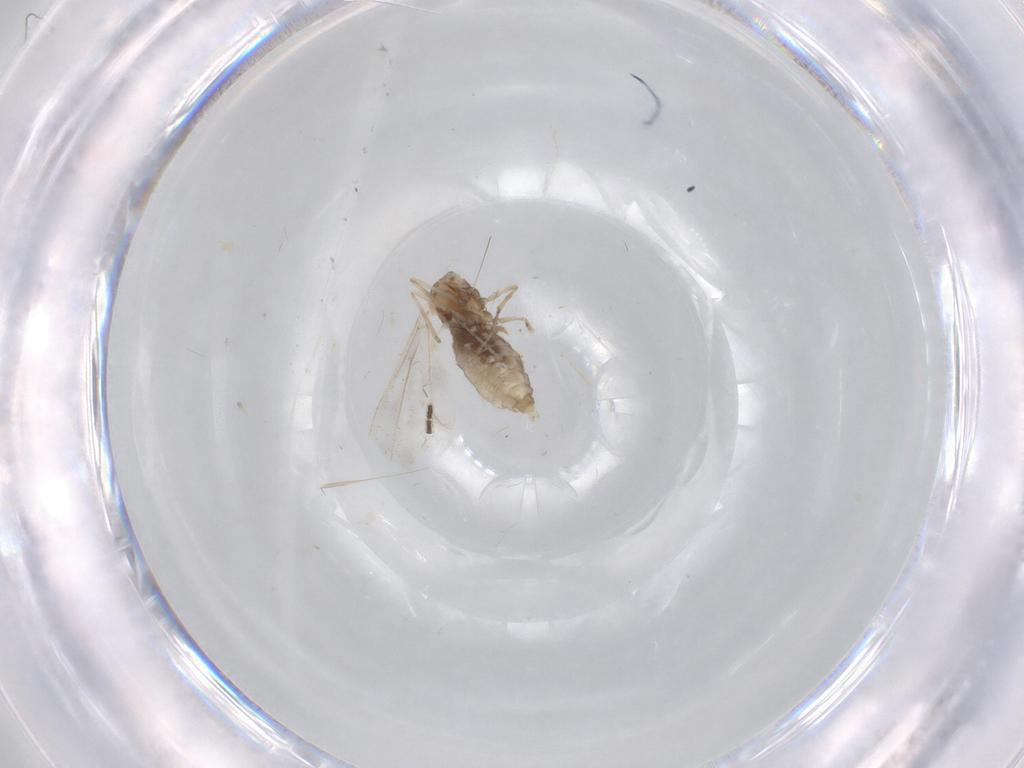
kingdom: Animalia
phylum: Arthropoda
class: Insecta
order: Diptera
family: Cecidomyiidae
